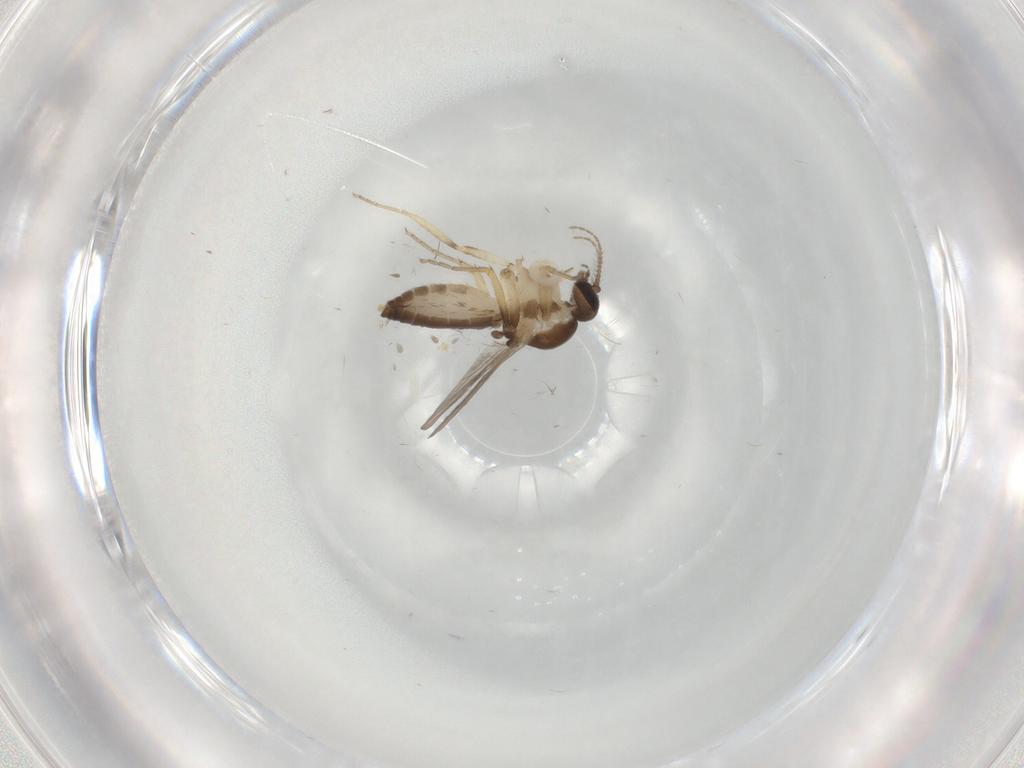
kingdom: Animalia
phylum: Arthropoda
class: Insecta
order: Diptera
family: Ceratopogonidae
